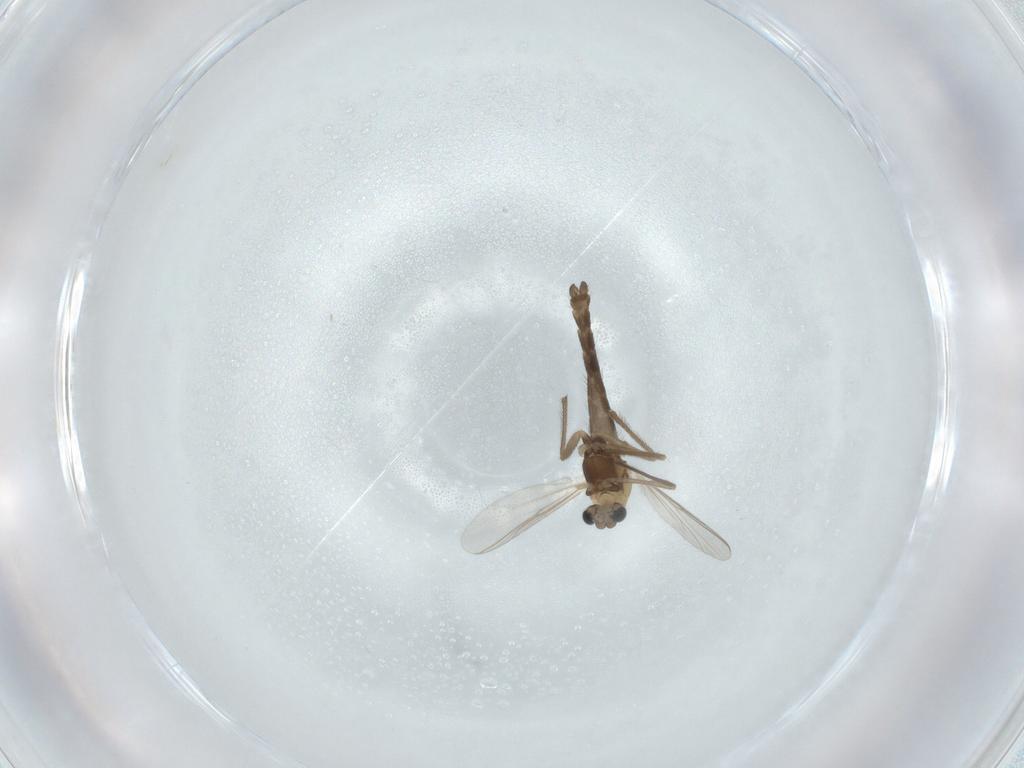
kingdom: Animalia
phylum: Arthropoda
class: Insecta
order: Diptera
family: Chironomidae
